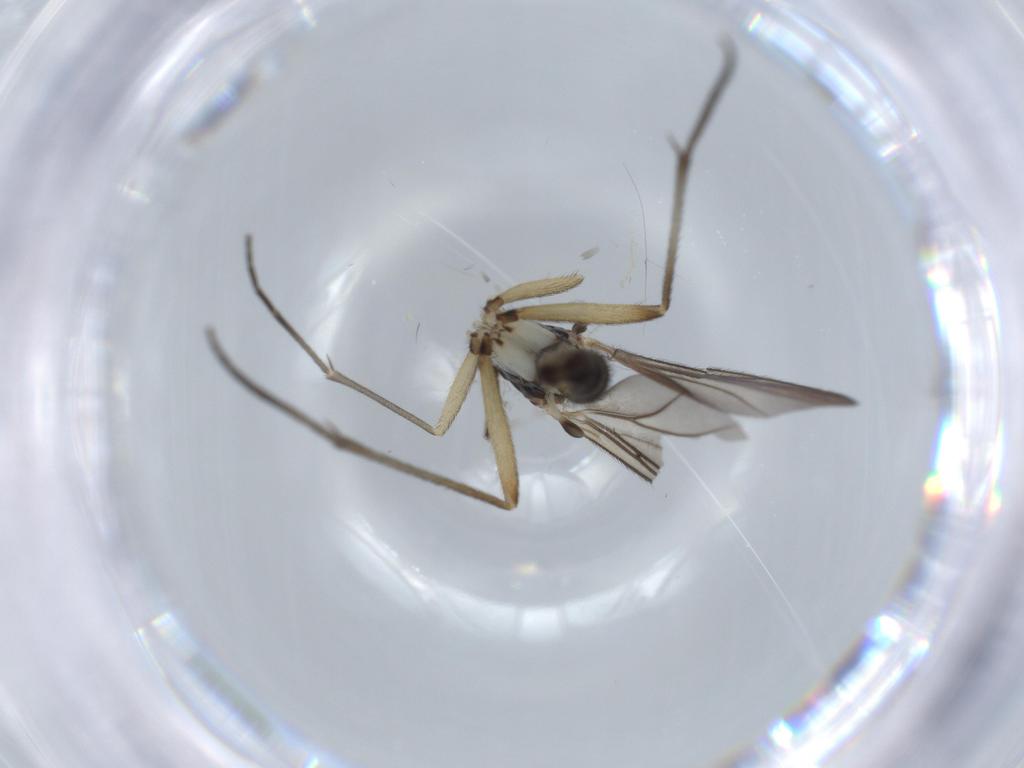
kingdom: Animalia
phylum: Arthropoda
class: Insecta
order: Diptera
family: Sciaridae
